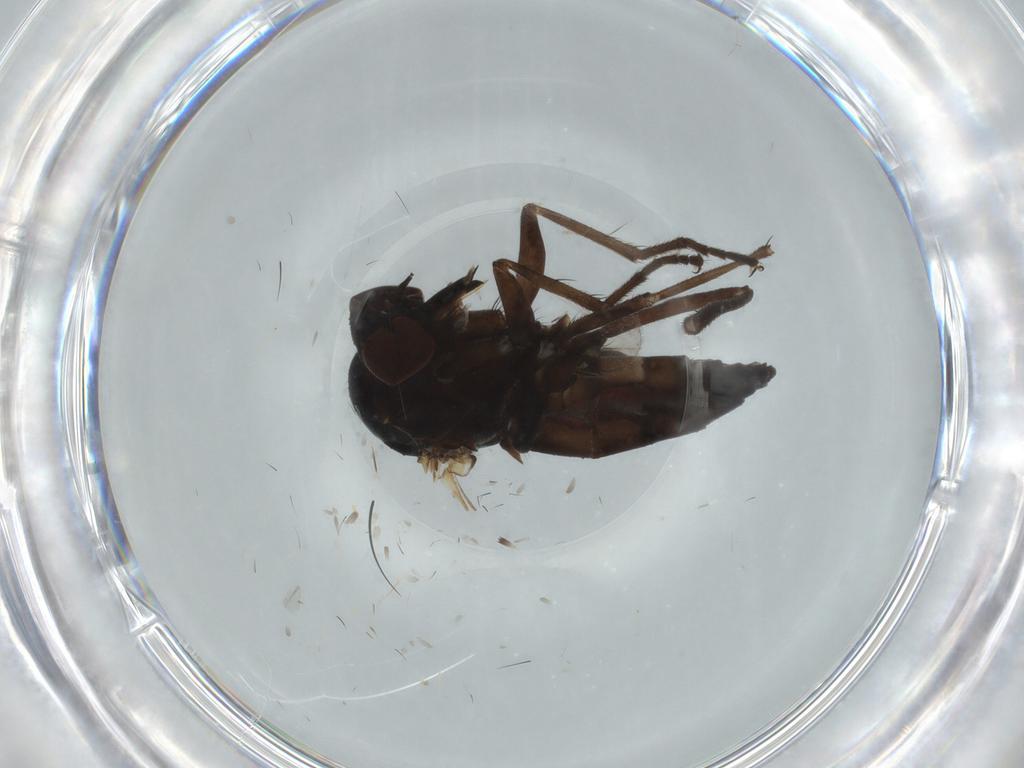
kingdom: Animalia
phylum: Arthropoda
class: Insecta
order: Diptera
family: Empididae
